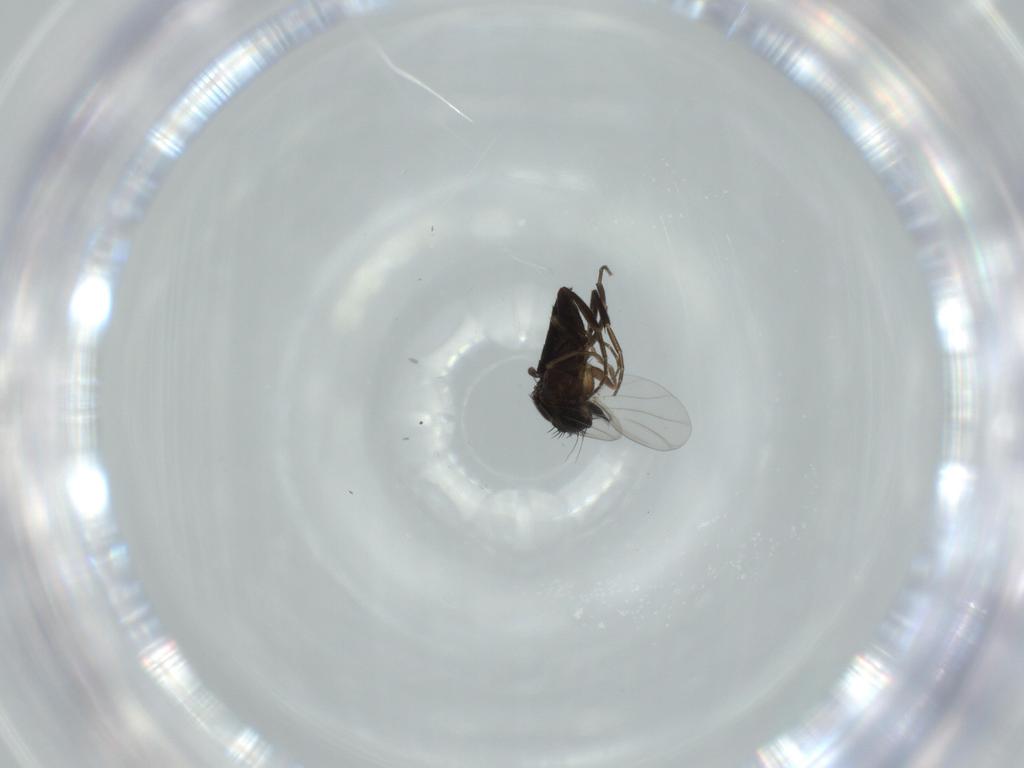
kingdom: Animalia
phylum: Arthropoda
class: Insecta
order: Diptera
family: Phoridae
